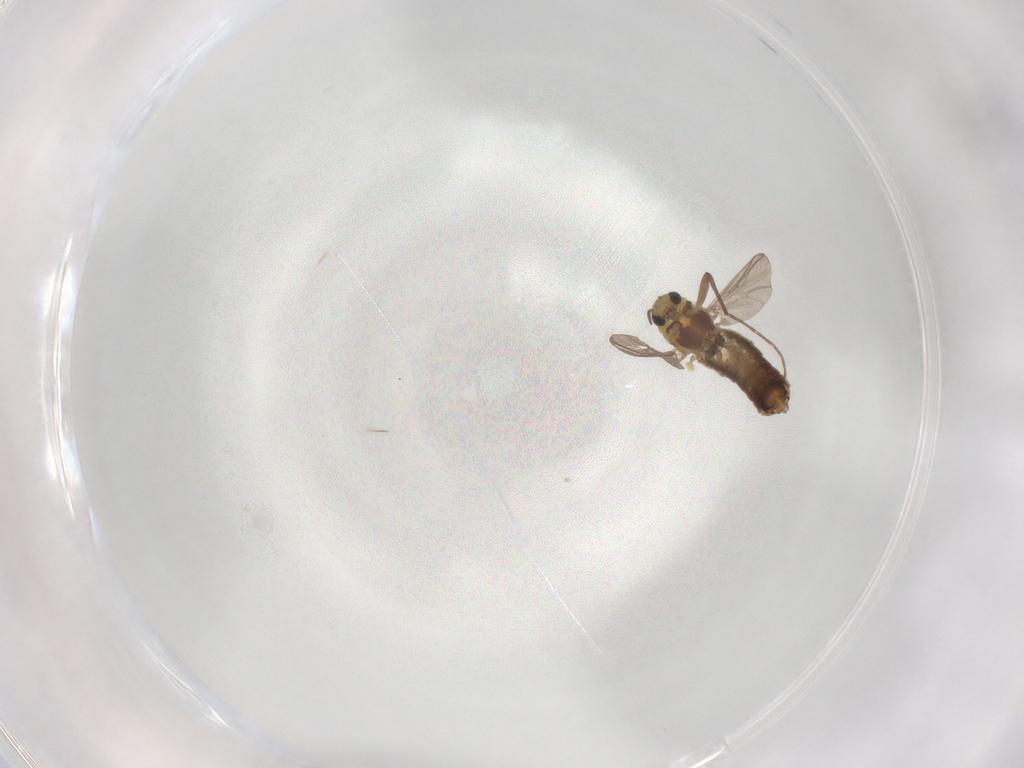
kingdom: Animalia
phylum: Arthropoda
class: Insecta
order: Diptera
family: Chironomidae
